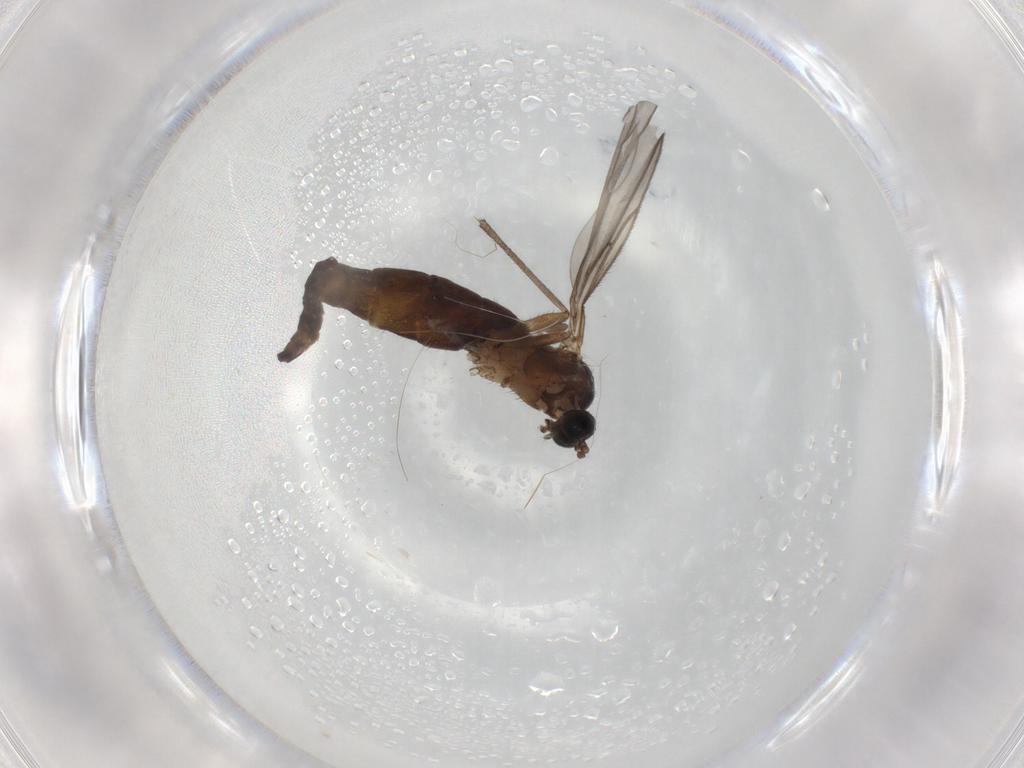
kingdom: Animalia
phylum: Arthropoda
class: Insecta
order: Diptera
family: Sciaridae
